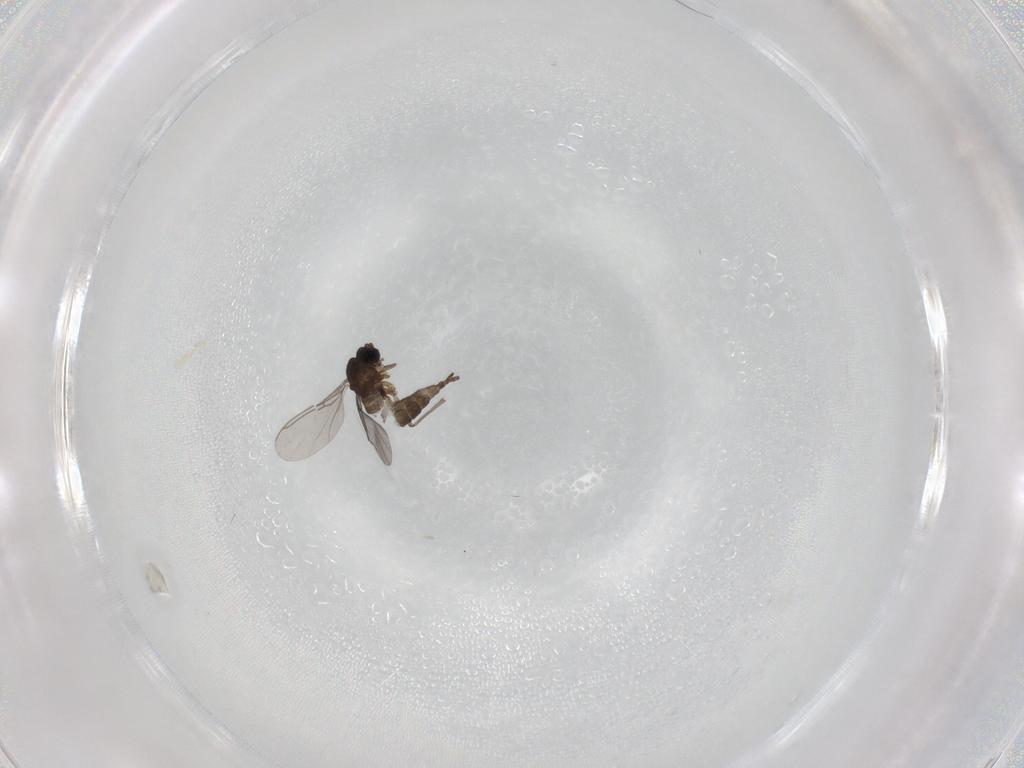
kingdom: Animalia
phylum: Arthropoda
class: Insecta
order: Diptera
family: Sciaridae
